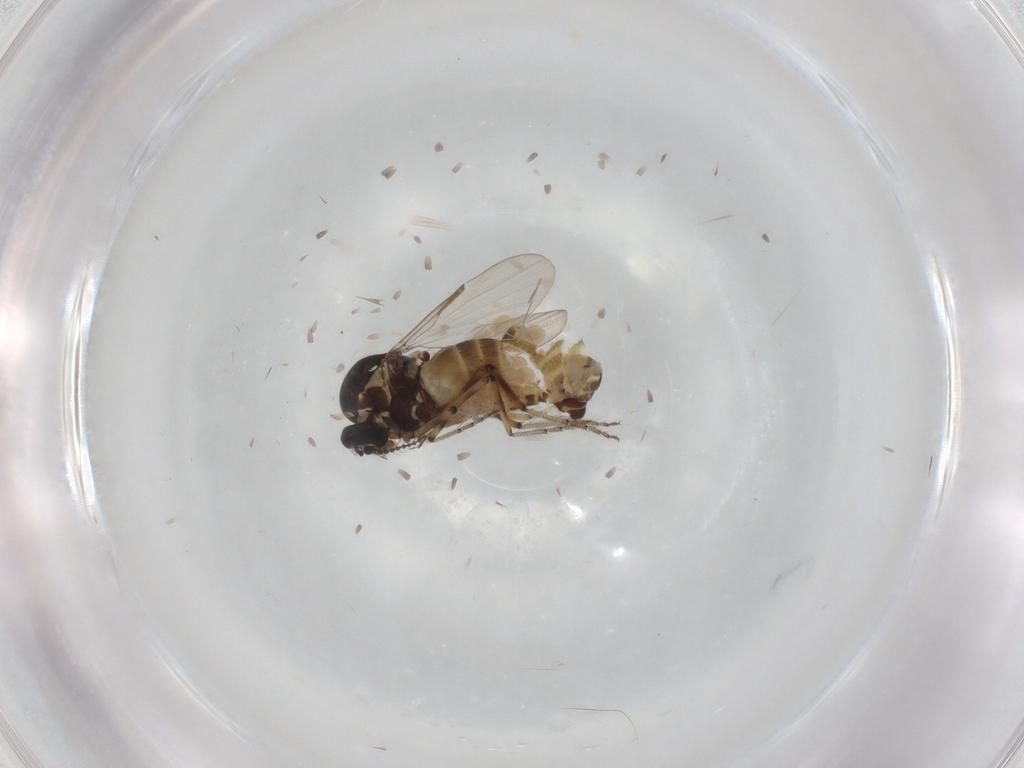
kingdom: Animalia
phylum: Arthropoda
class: Insecta
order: Diptera
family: Ceratopogonidae
